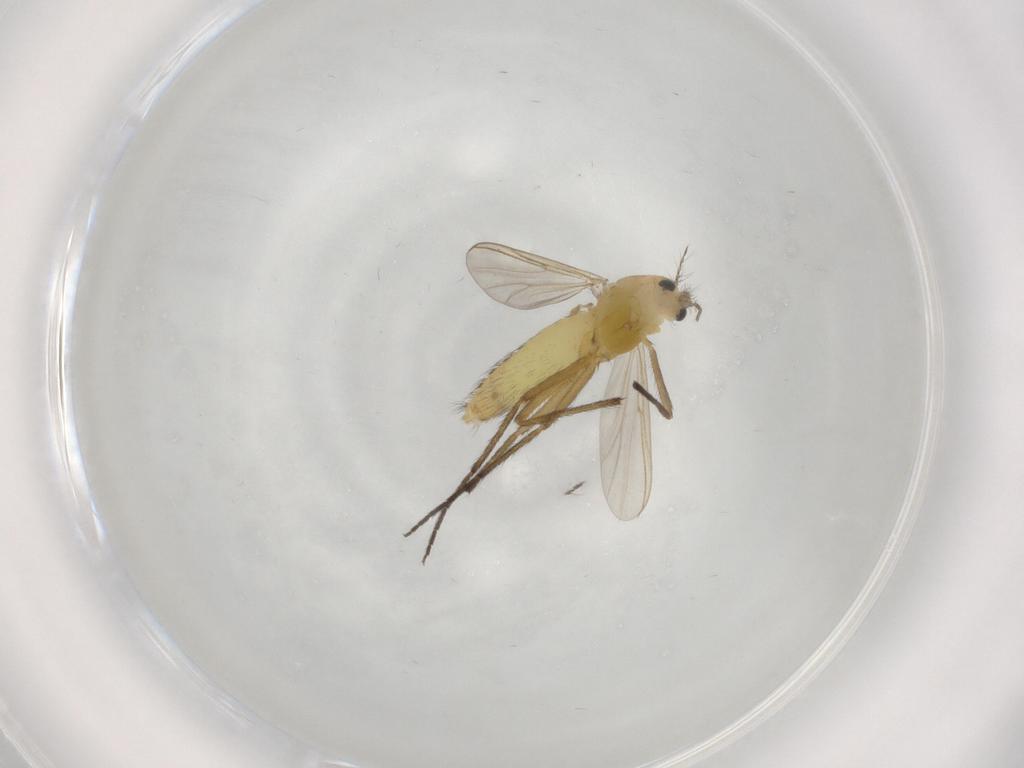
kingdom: Animalia
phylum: Arthropoda
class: Insecta
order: Diptera
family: Chironomidae
